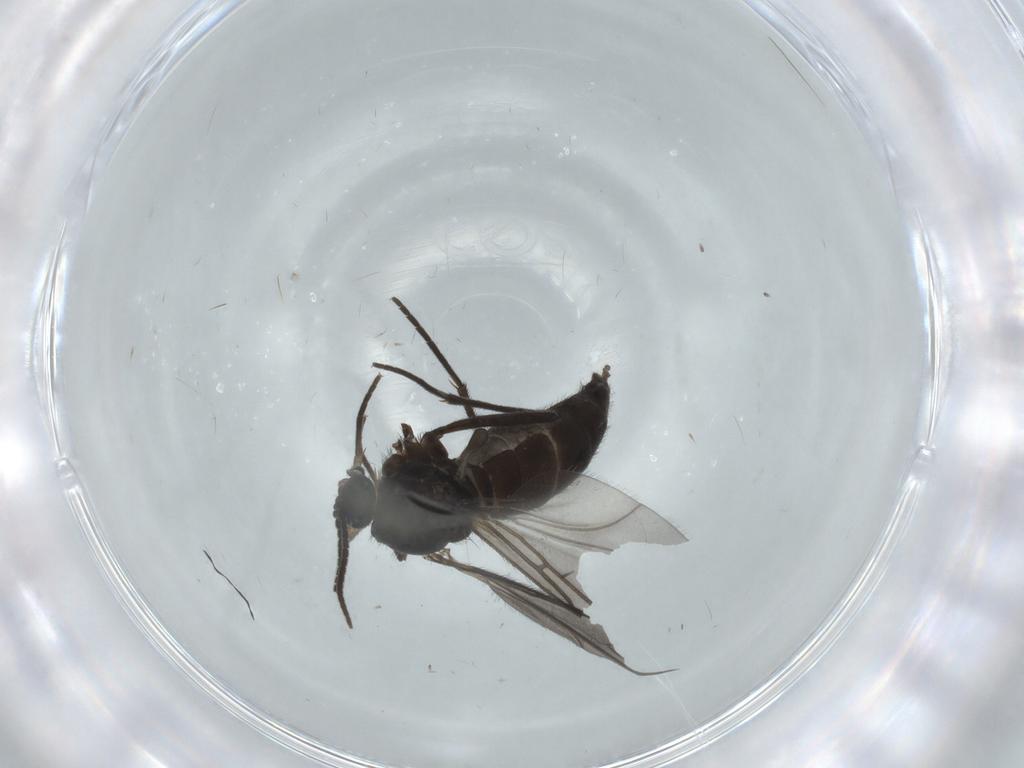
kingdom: Animalia
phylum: Arthropoda
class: Insecta
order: Diptera
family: Sciaridae
